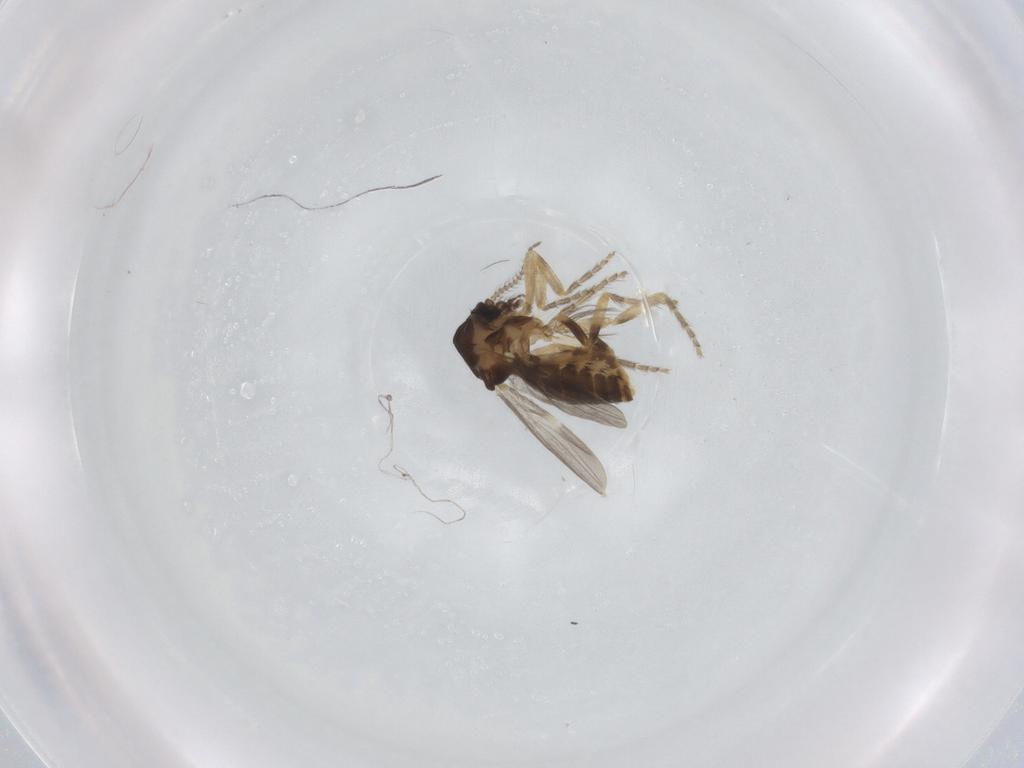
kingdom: Animalia
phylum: Arthropoda
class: Insecta
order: Diptera
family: Ceratopogonidae
